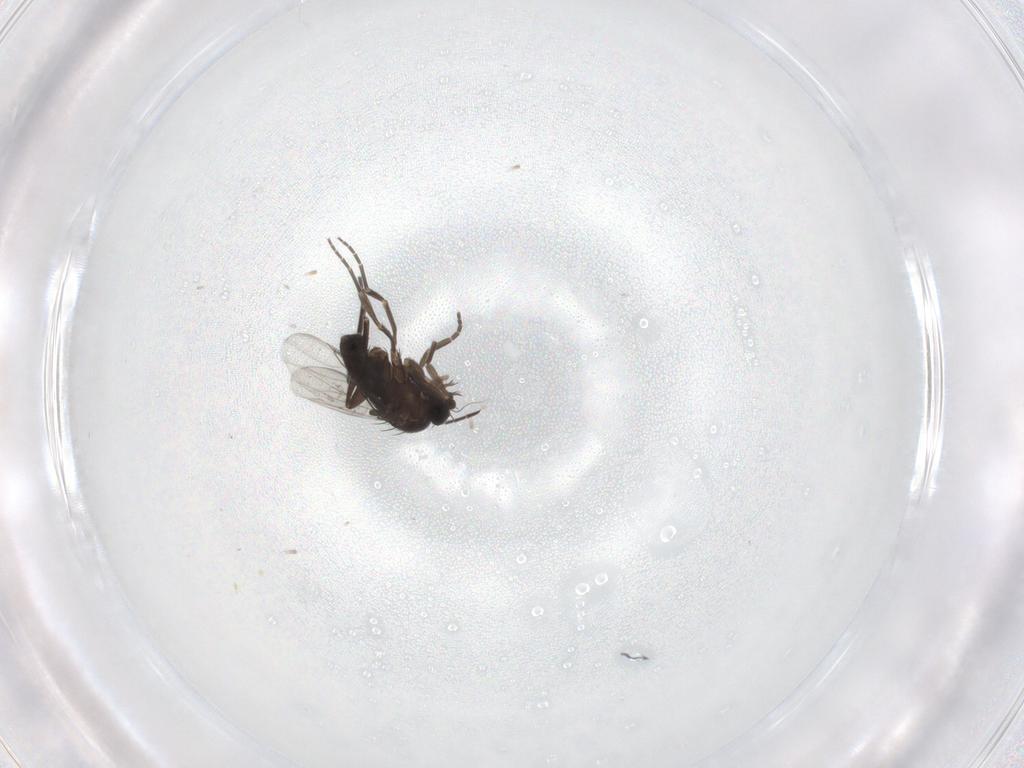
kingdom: Animalia
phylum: Arthropoda
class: Insecta
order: Diptera
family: Phoridae
